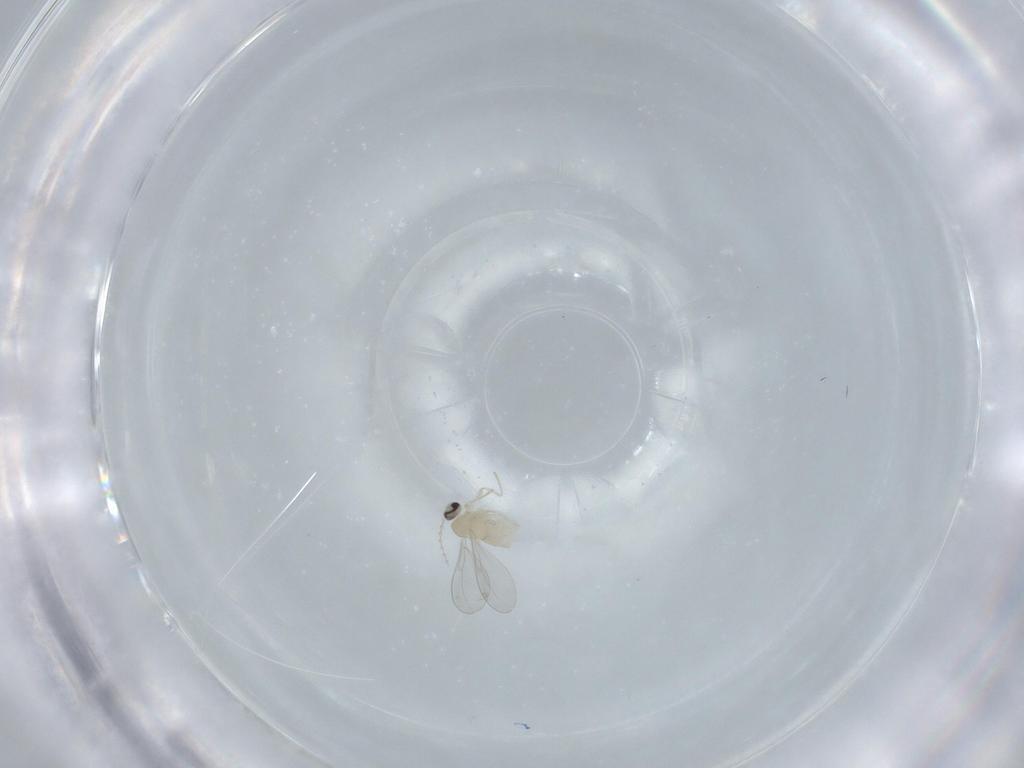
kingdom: Animalia
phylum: Arthropoda
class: Insecta
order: Diptera
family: Cecidomyiidae
